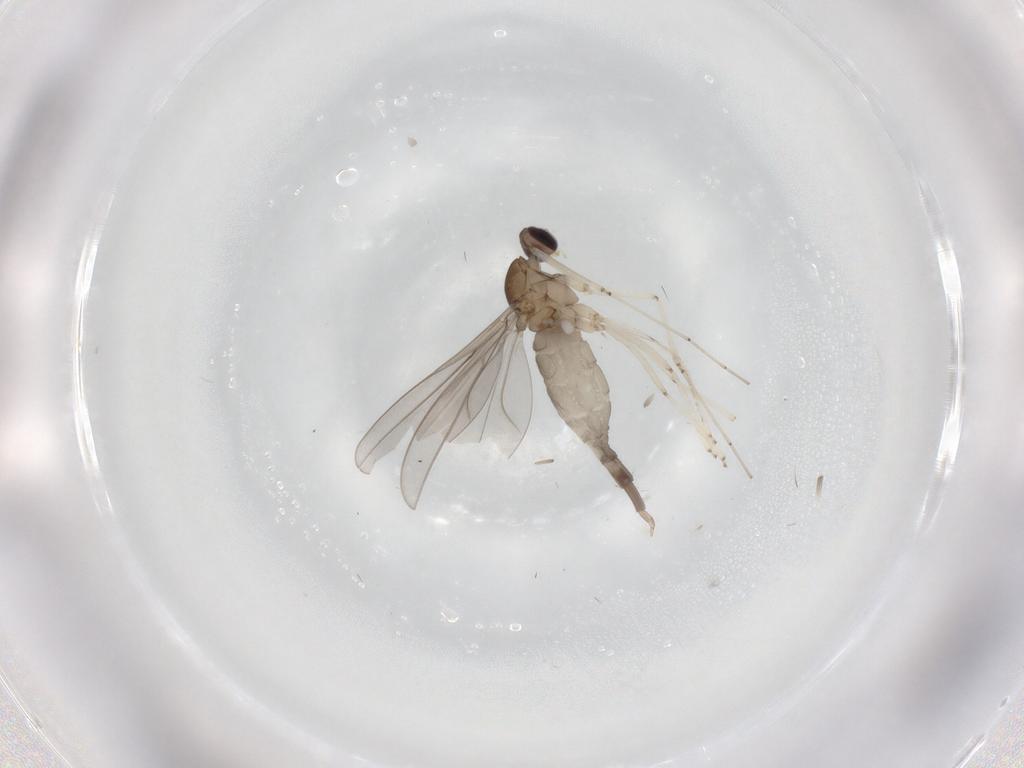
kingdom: Animalia
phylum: Arthropoda
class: Insecta
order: Diptera
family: Cecidomyiidae
